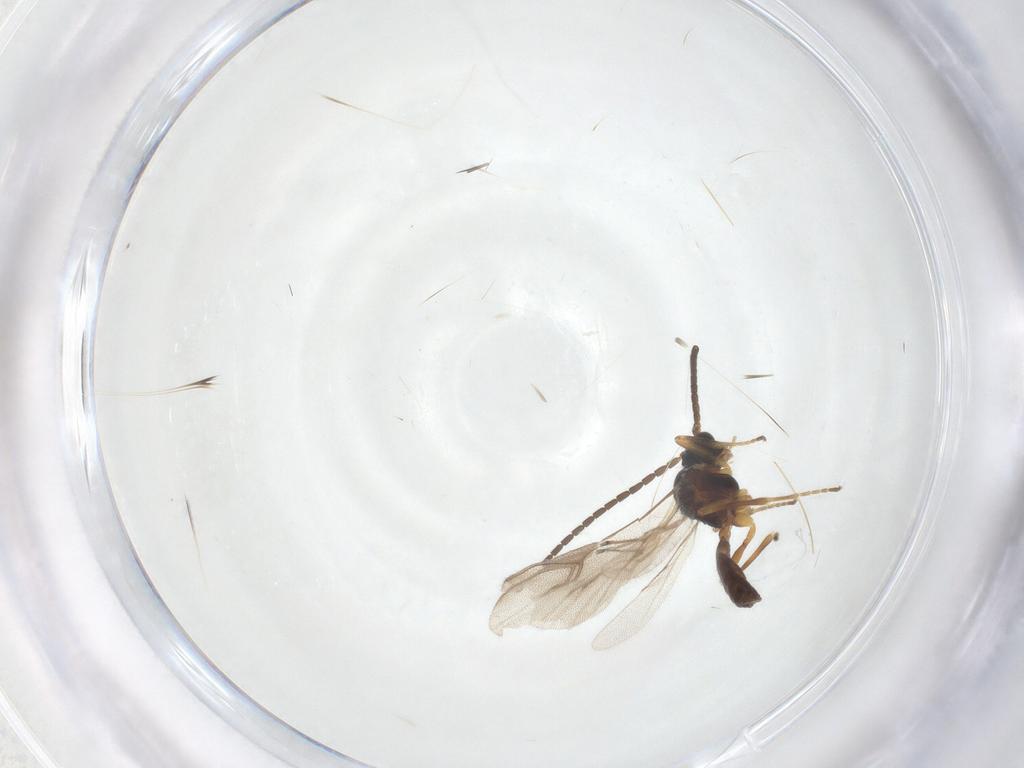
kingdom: Animalia
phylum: Arthropoda
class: Insecta
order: Hymenoptera
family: Braconidae
